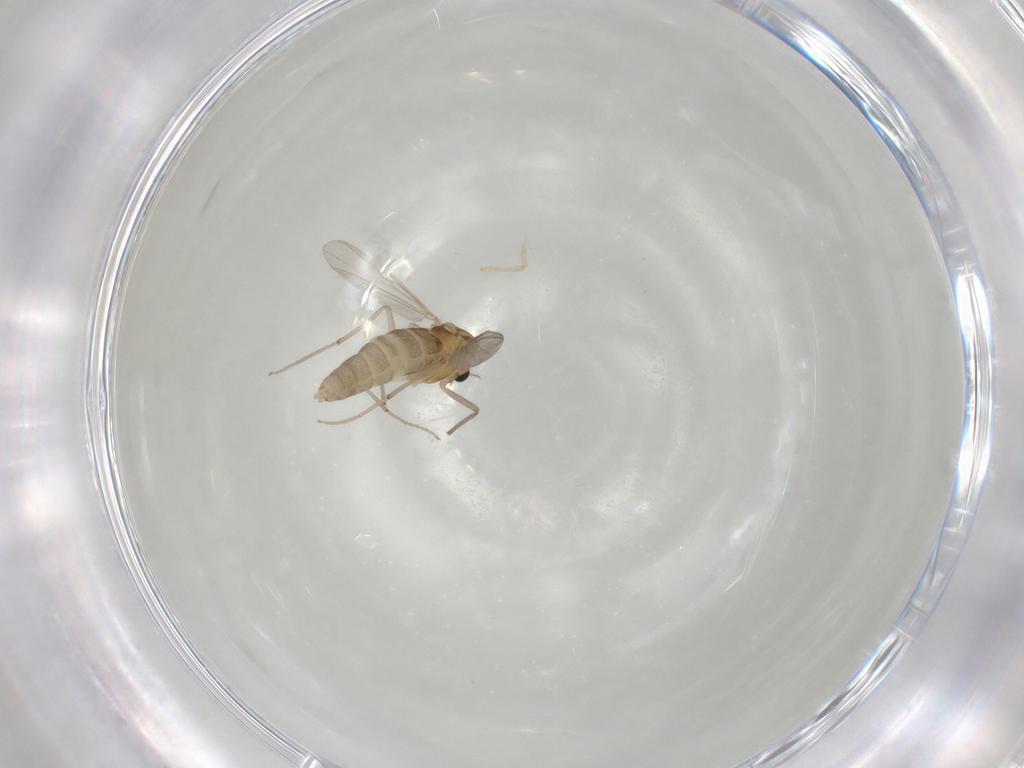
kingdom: Animalia
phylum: Arthropoda
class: Insecta
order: Diptera
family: Chironomidae
